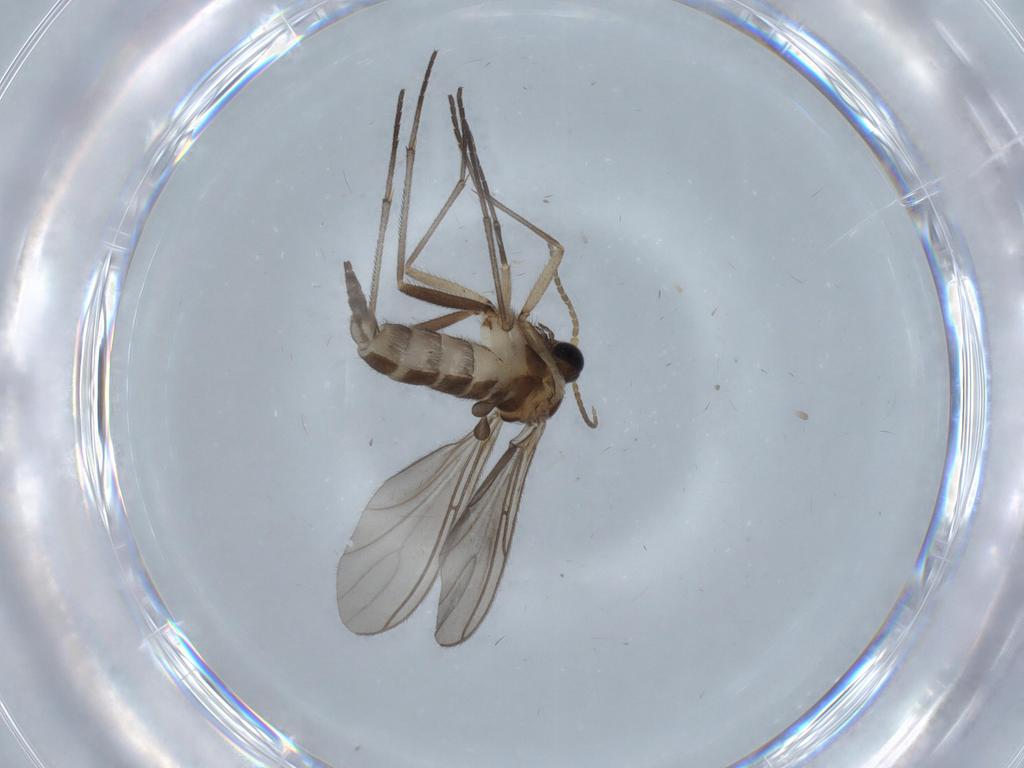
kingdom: Animalia
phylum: Arthropoda
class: Insecta
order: Diptera
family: Sciaridae
